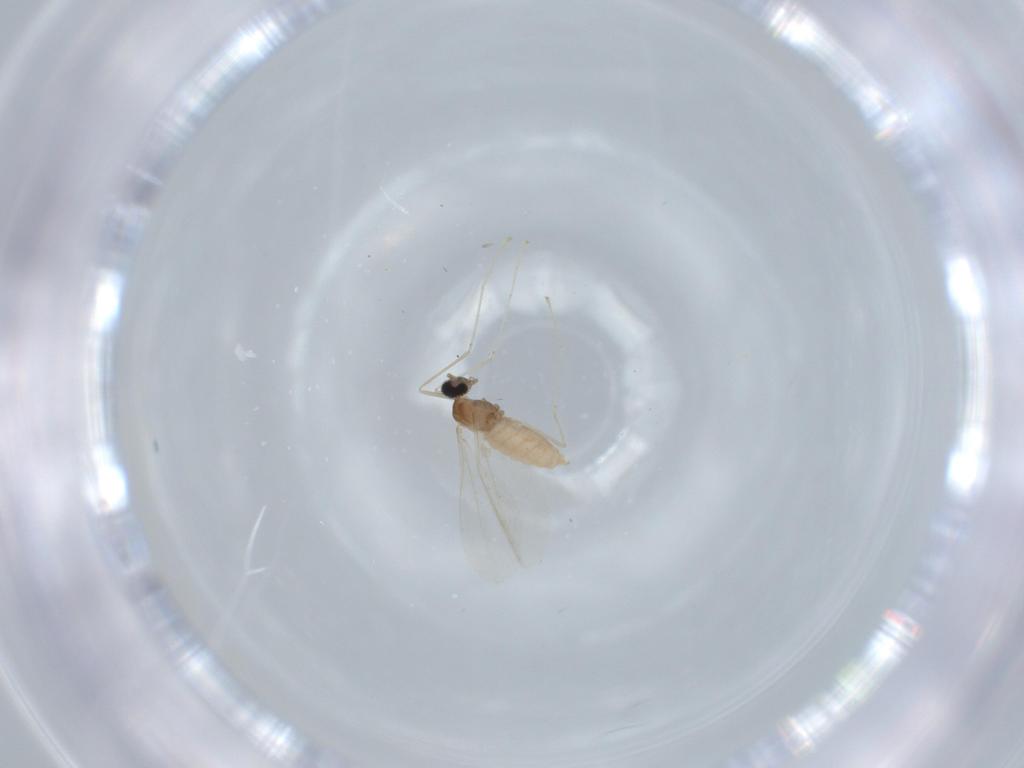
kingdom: Animalia
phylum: Arthropoda
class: Insecta
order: Diptera
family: Cecidomyiidae
